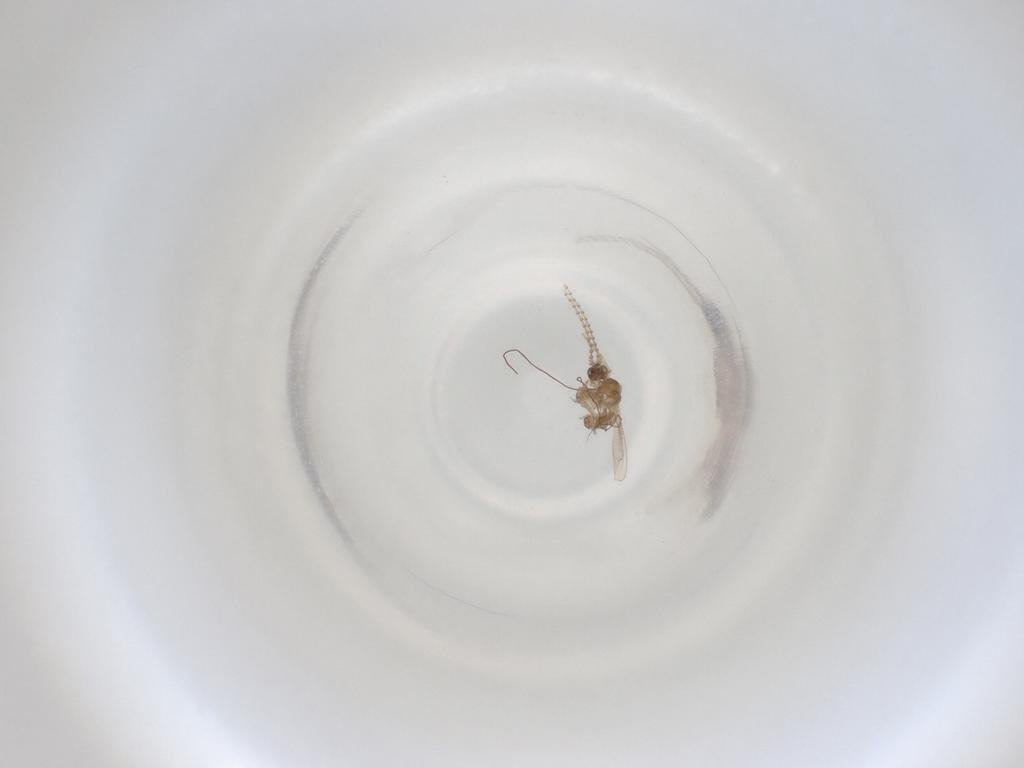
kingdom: Animalia
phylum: Arthropoda
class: Insecta
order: Diptera
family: Cecidomyiidae
